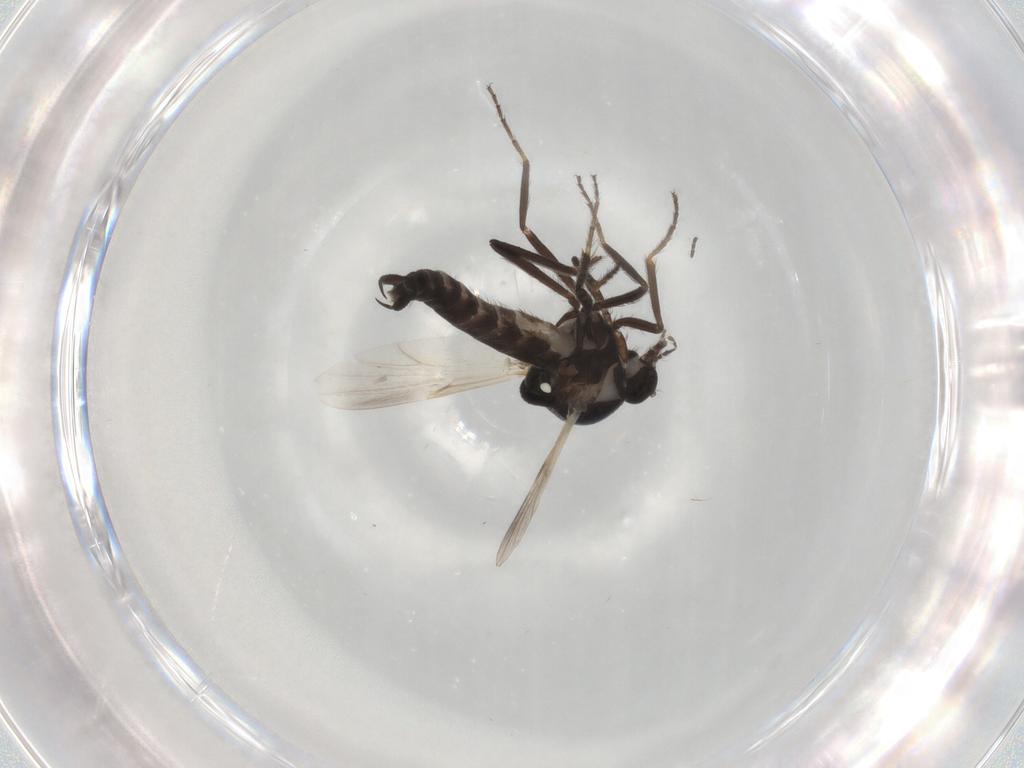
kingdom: Animalia
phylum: Arthropoda
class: Insecta
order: Diptera
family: Ceratopogonidae
